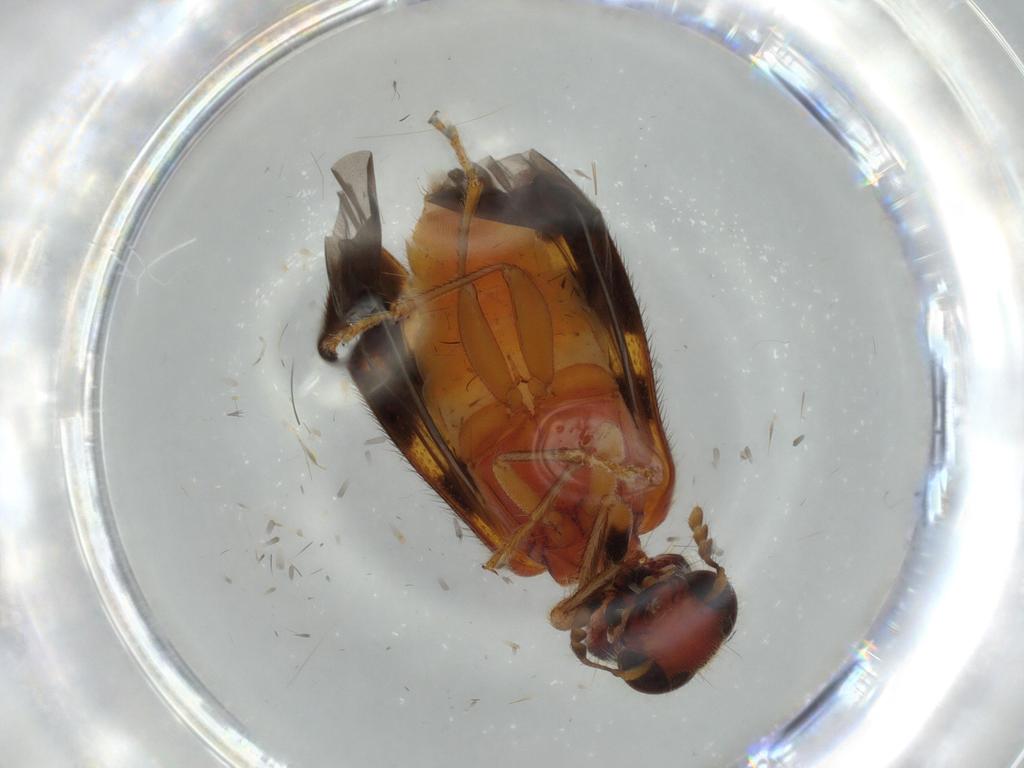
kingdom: Animalia
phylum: Arthropoda
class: Insecta
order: Coleoptera
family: Cleridae
